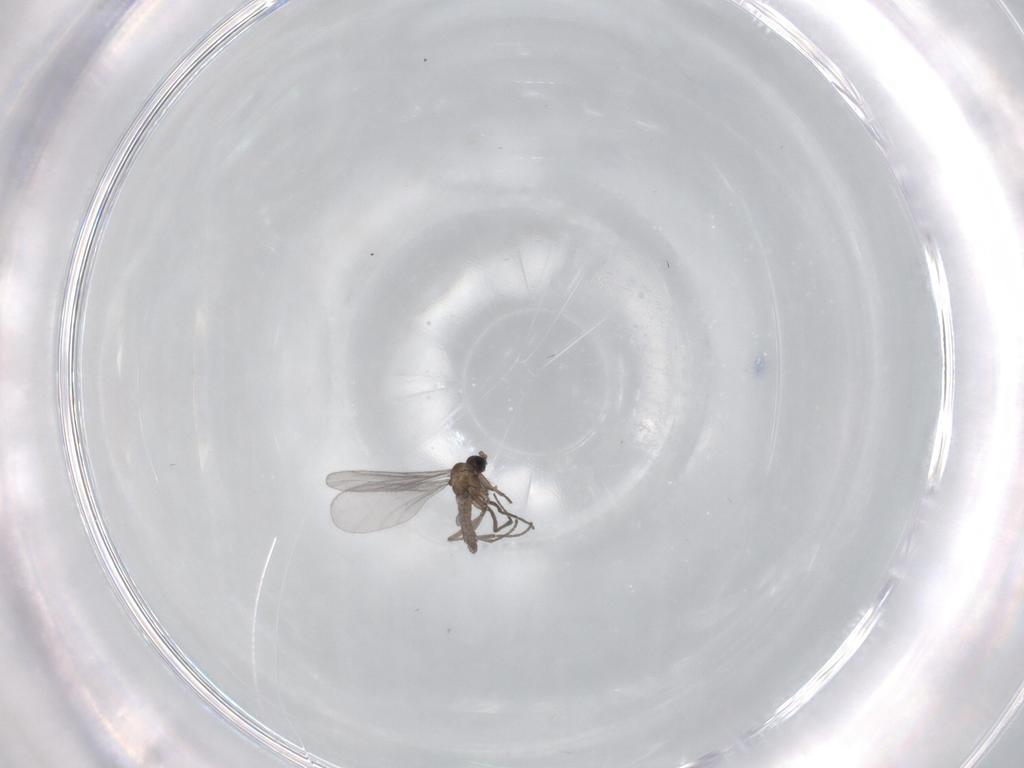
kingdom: Animalia
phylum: Arthropoda
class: Insecta
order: Diptera
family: Sciaridae
